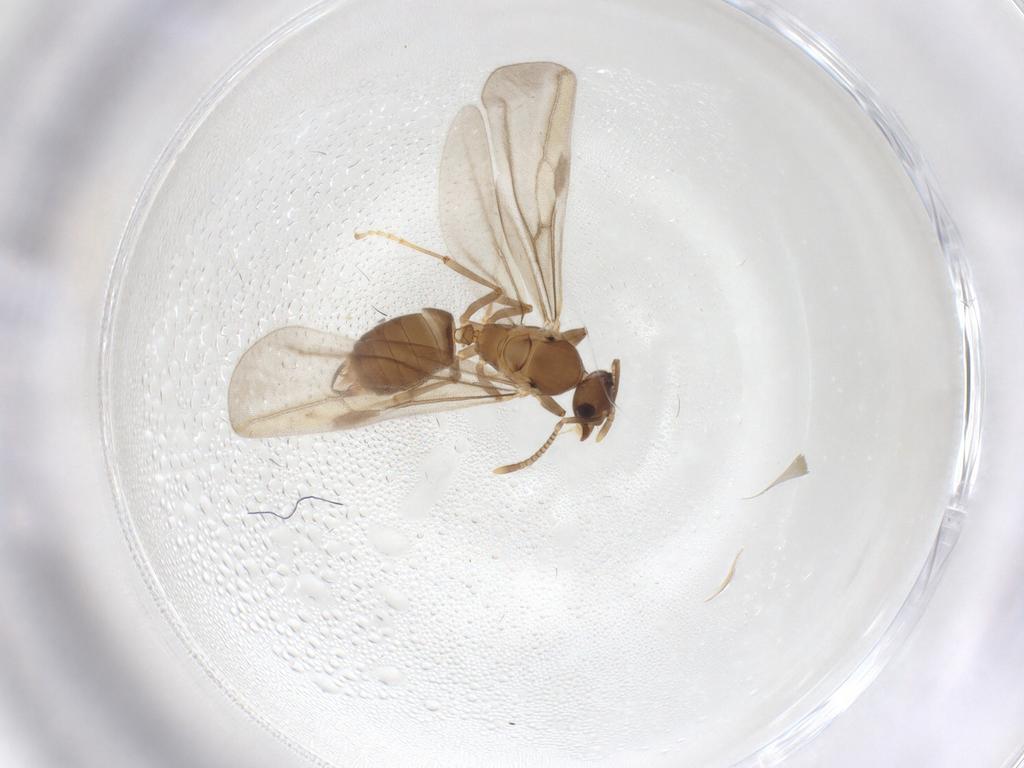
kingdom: Animalia
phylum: Arthropoda
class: Insecta
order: Hymenoptera
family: Formicidae
